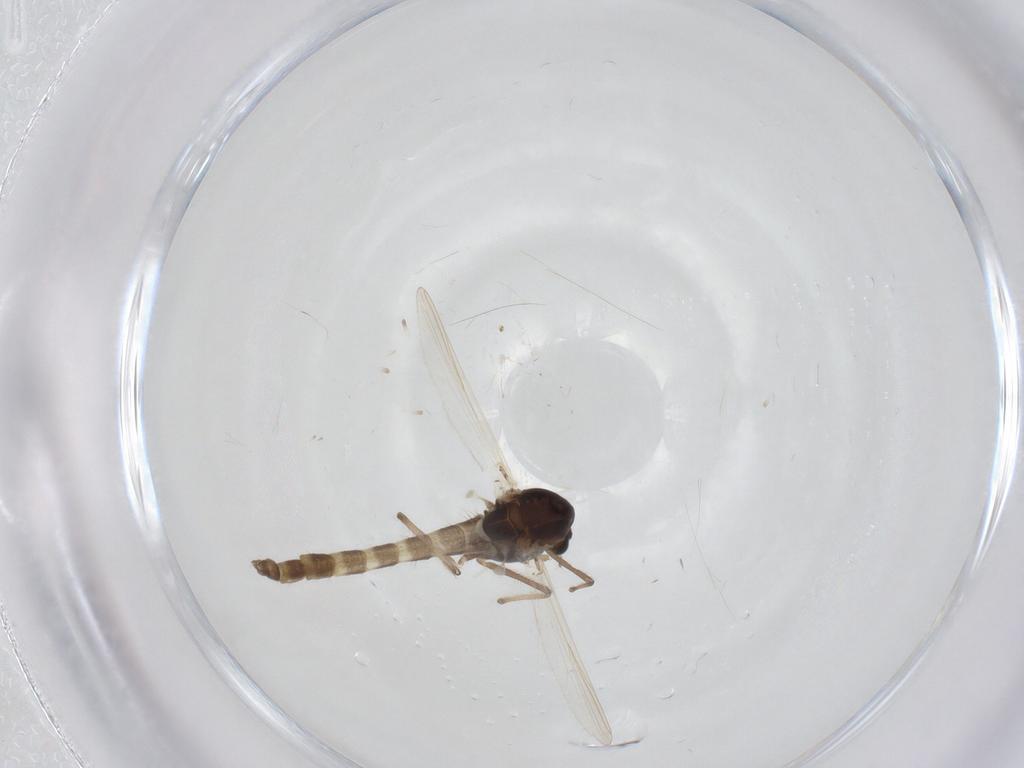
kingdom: Animalia
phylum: Arthropoda
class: Insecta
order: Diptera
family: Chironomidae
